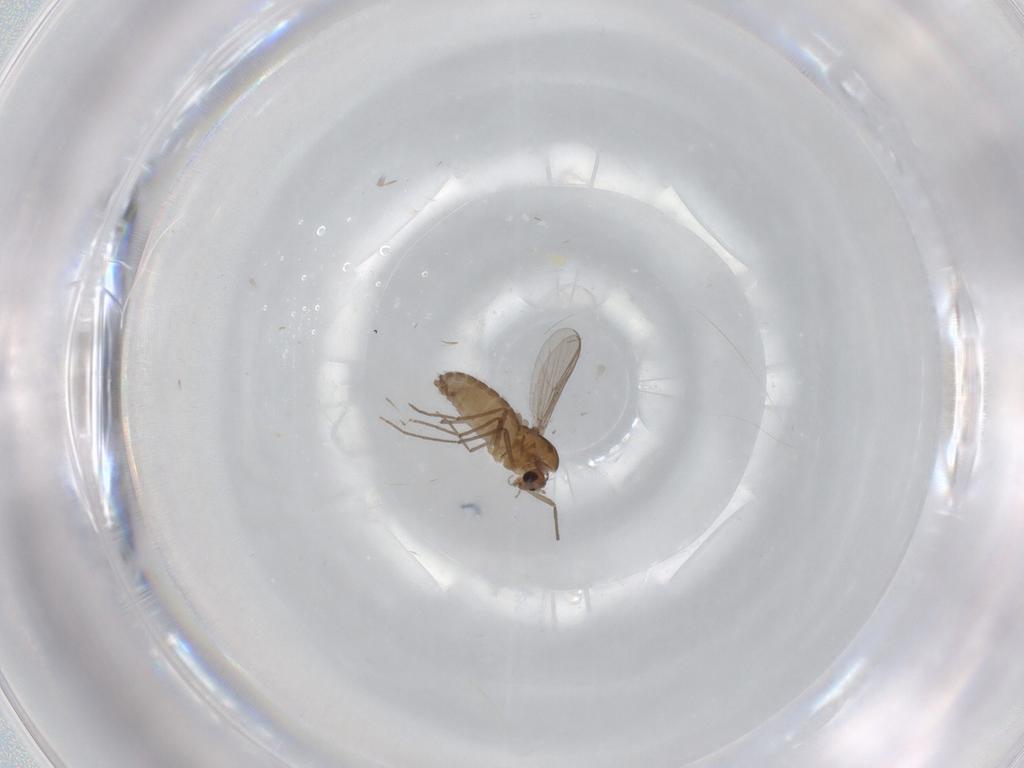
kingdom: Animalia
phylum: Arthropoda
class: Insecta
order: Diptera
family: Chironomidae
